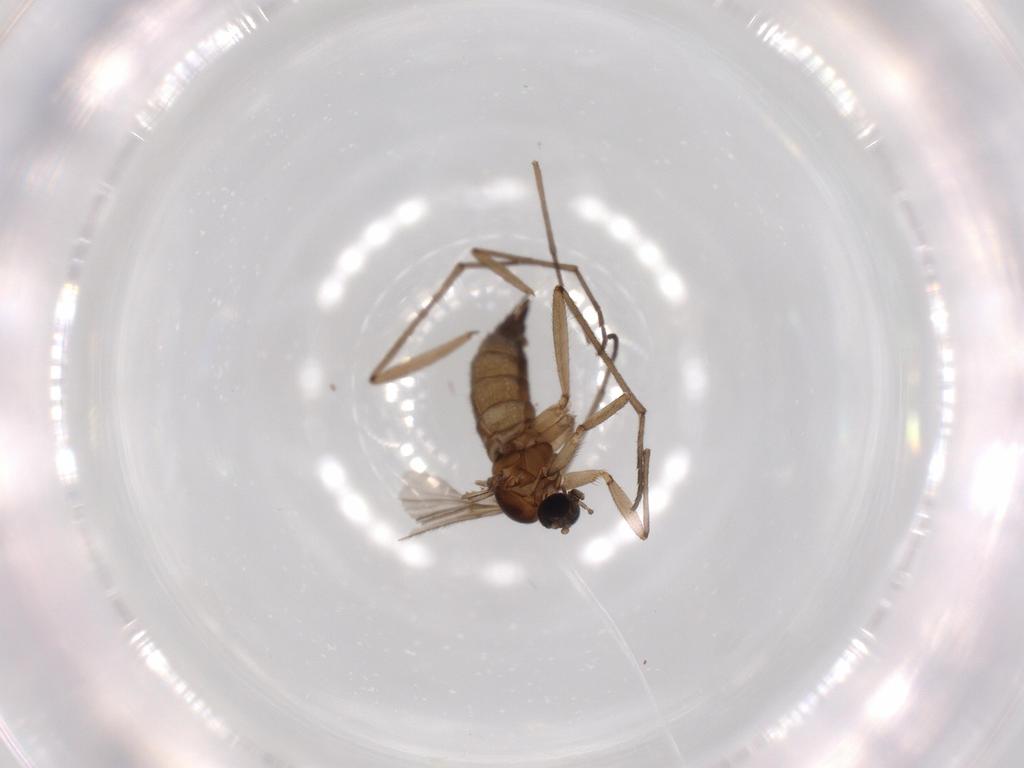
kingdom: Animalia
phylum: Arthropoda
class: Insecta
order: Diptera
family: Sciaridae
